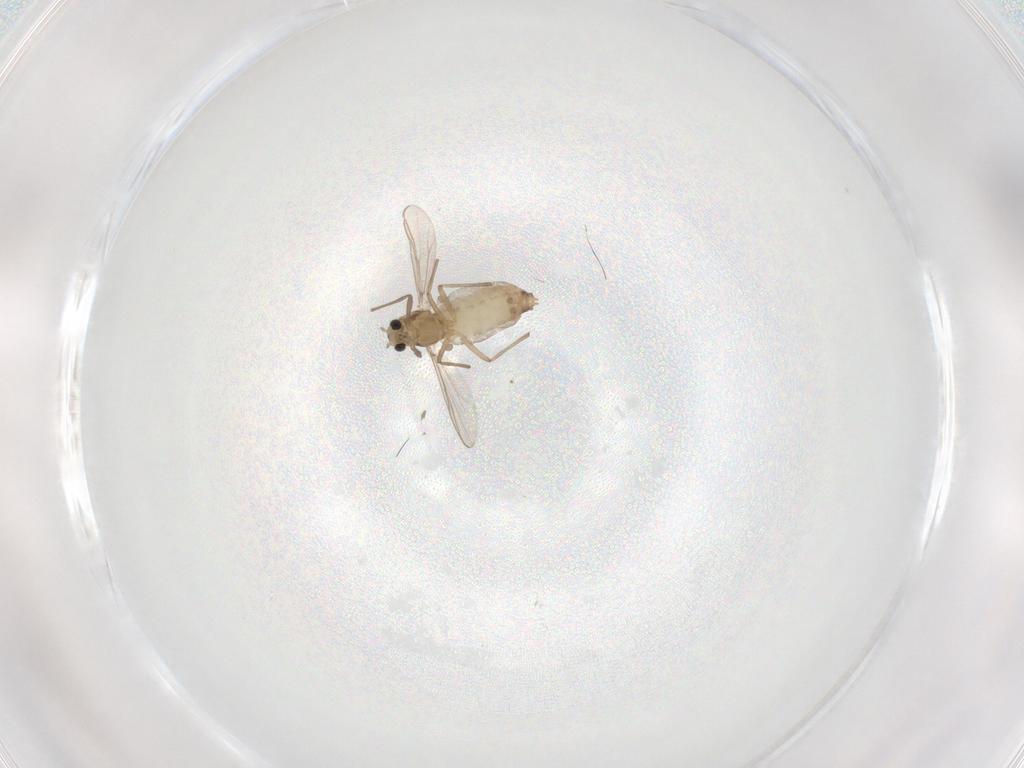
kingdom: Animalia
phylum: Arthropoda
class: Insecta
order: Diptera
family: Chironomidae
